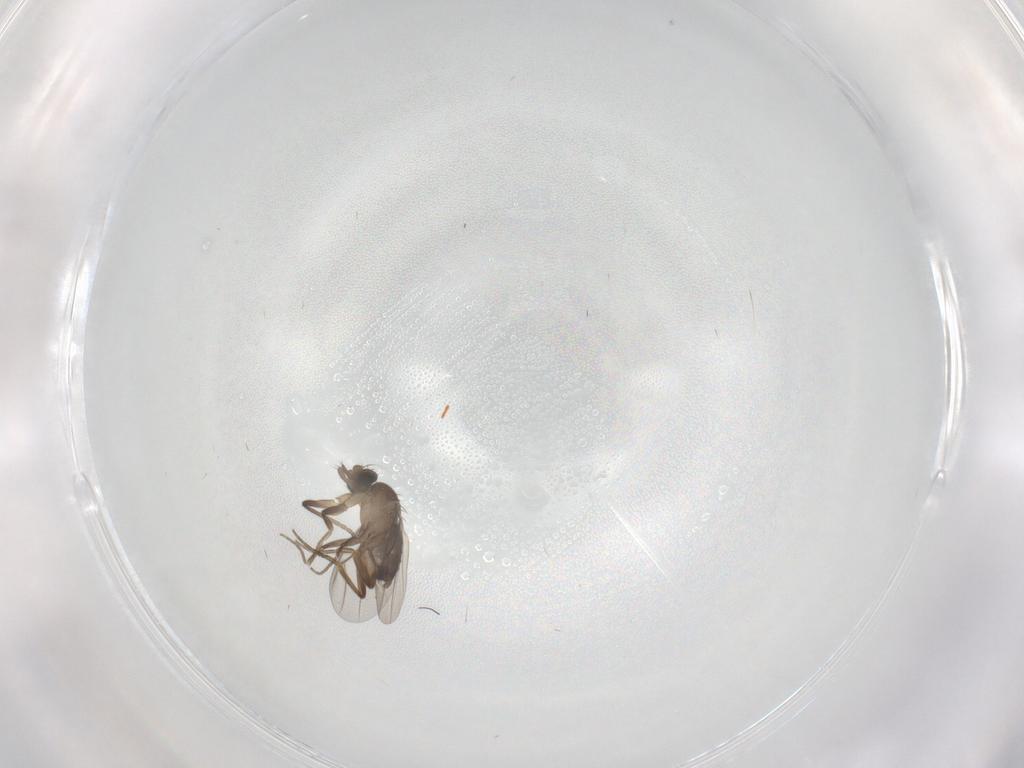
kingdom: Animalia
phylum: Arthropoda
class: Insecta
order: Diptera
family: Phoridae
